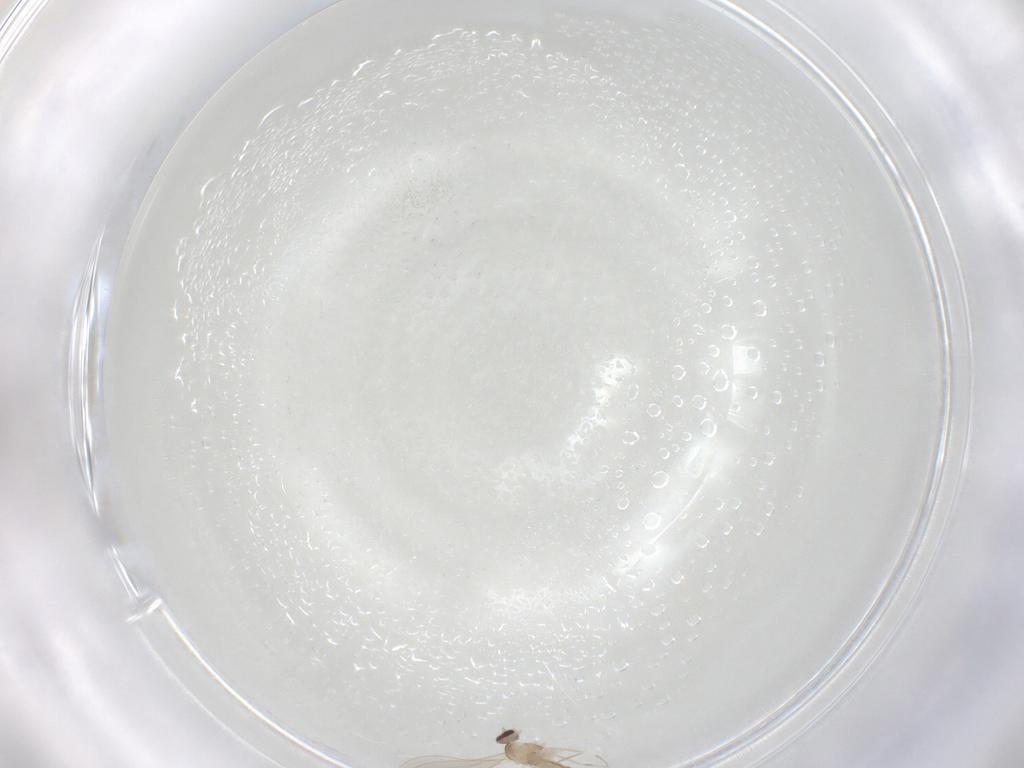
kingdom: Animalia
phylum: Arthropoda
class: Insecta
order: Diptera
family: Cecidomyiidae
